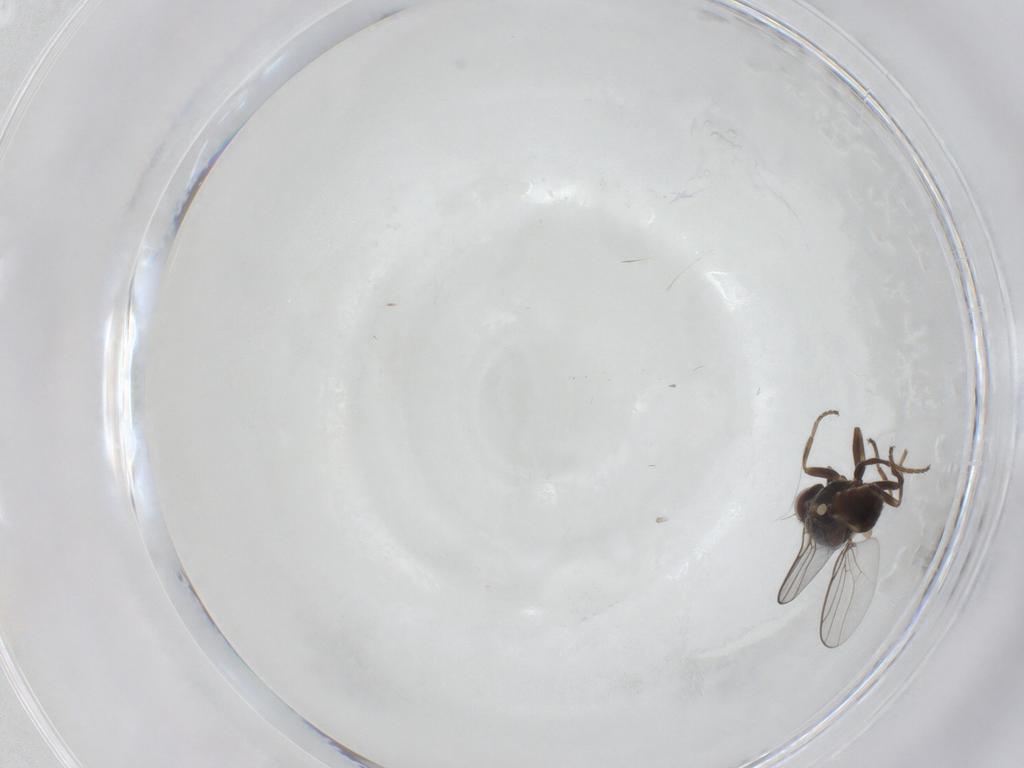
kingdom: Animalia
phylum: Arthropoda
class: Insecta
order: Diptera
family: Chloropidae
